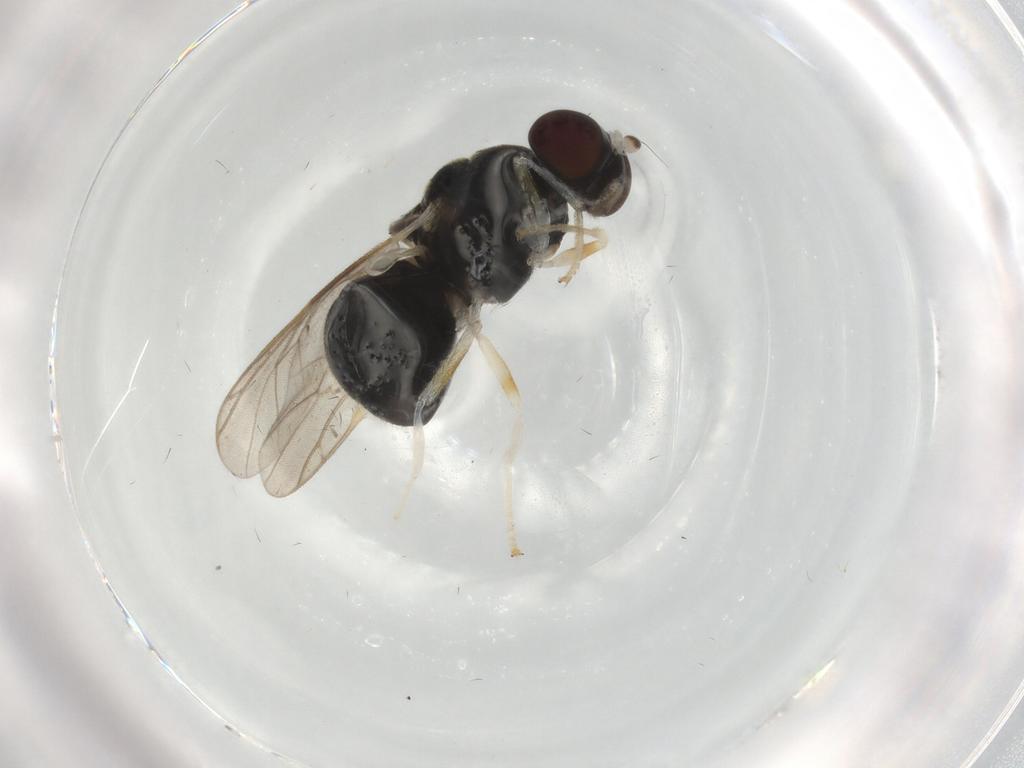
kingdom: Animalia
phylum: Arthropoda
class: Insecta
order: Diptera
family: Stratiomyidae
